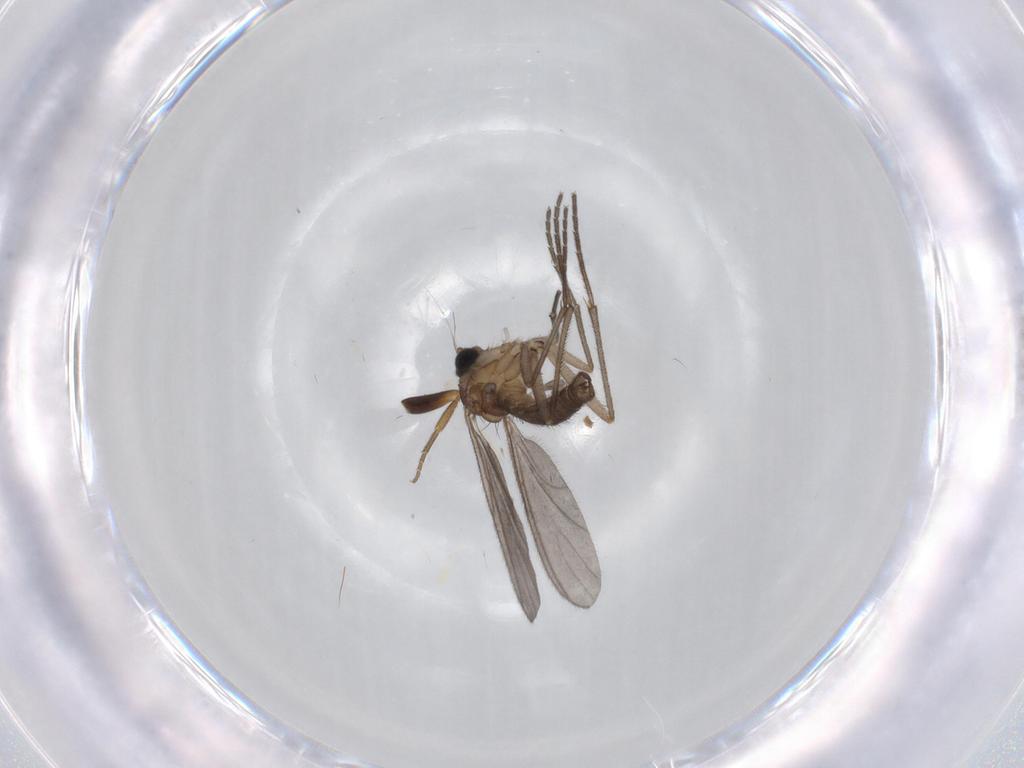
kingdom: Animalia
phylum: Arthropoda
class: Insecta
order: Diptera
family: Phoridae
